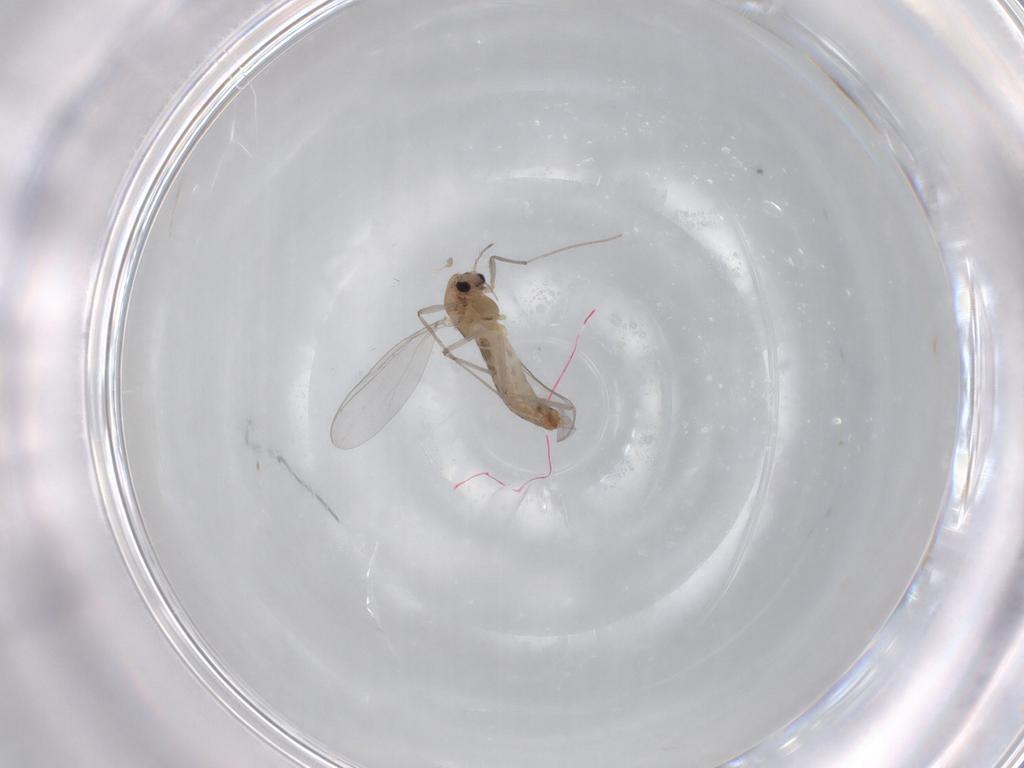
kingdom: Animalia
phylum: Arthropoda
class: Insecta
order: Diptera
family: Chironomidae
